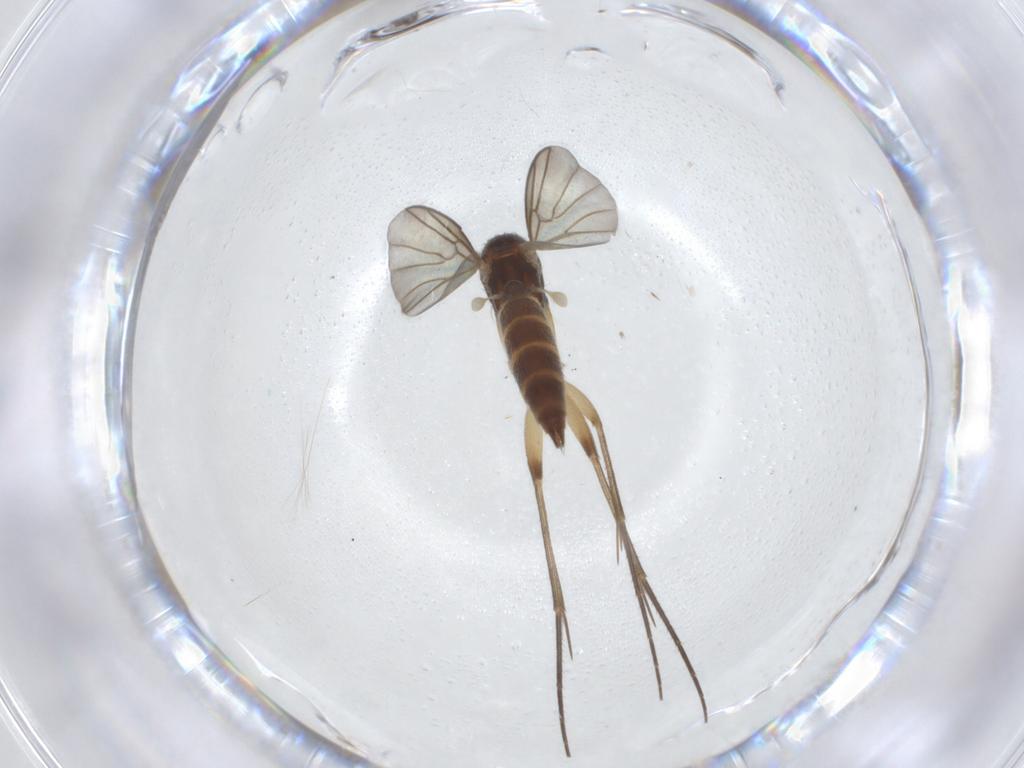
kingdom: Animalia
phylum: Arthropoda
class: Insecta
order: Diptera
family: Mycetophilidae
